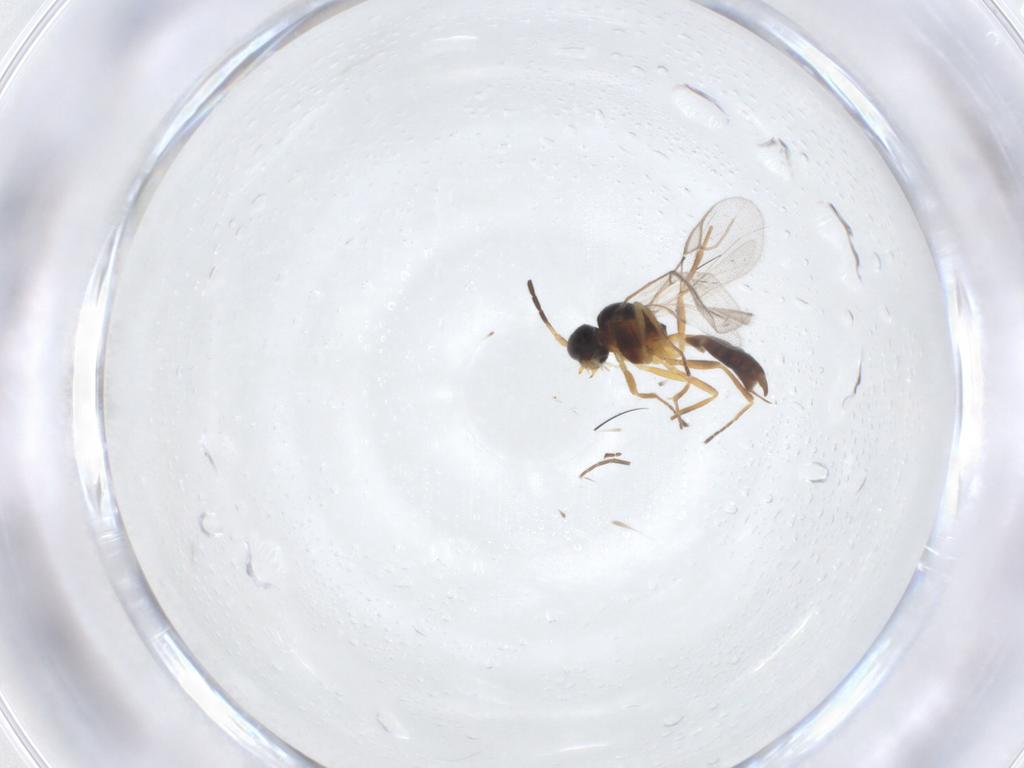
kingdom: Animalia
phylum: Arthropoda
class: Insecta
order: Hymenoptera
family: Braconidae
